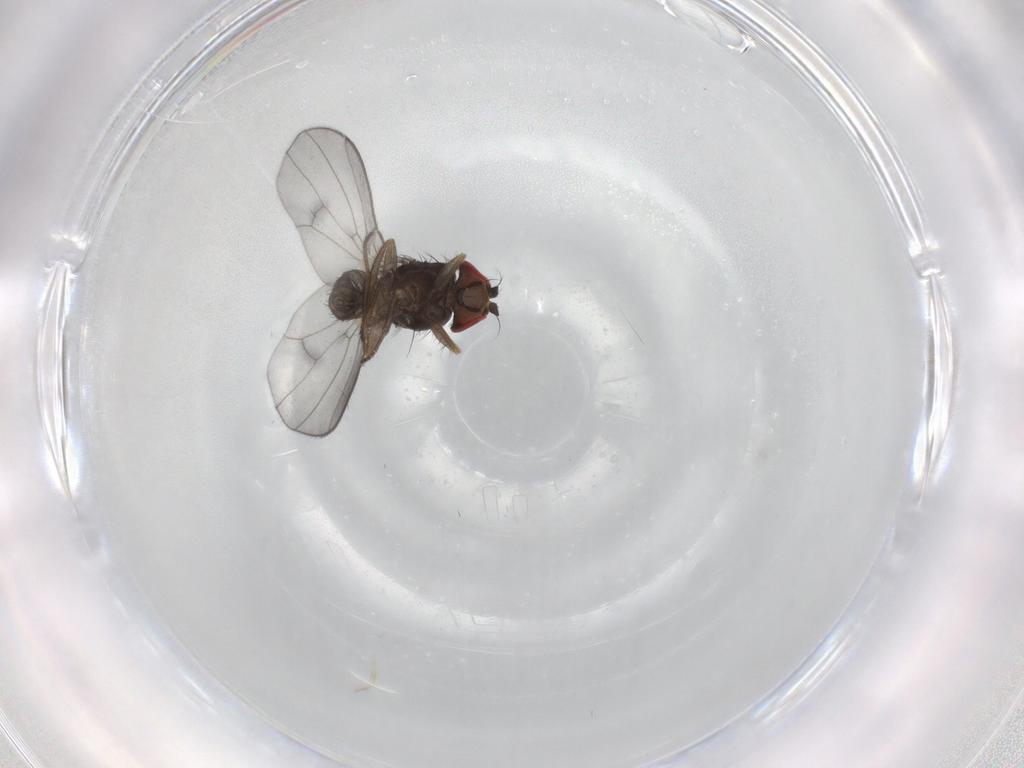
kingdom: Animalia
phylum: Arthropoda
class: Insecta
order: Diptera
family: Drosophilidae
